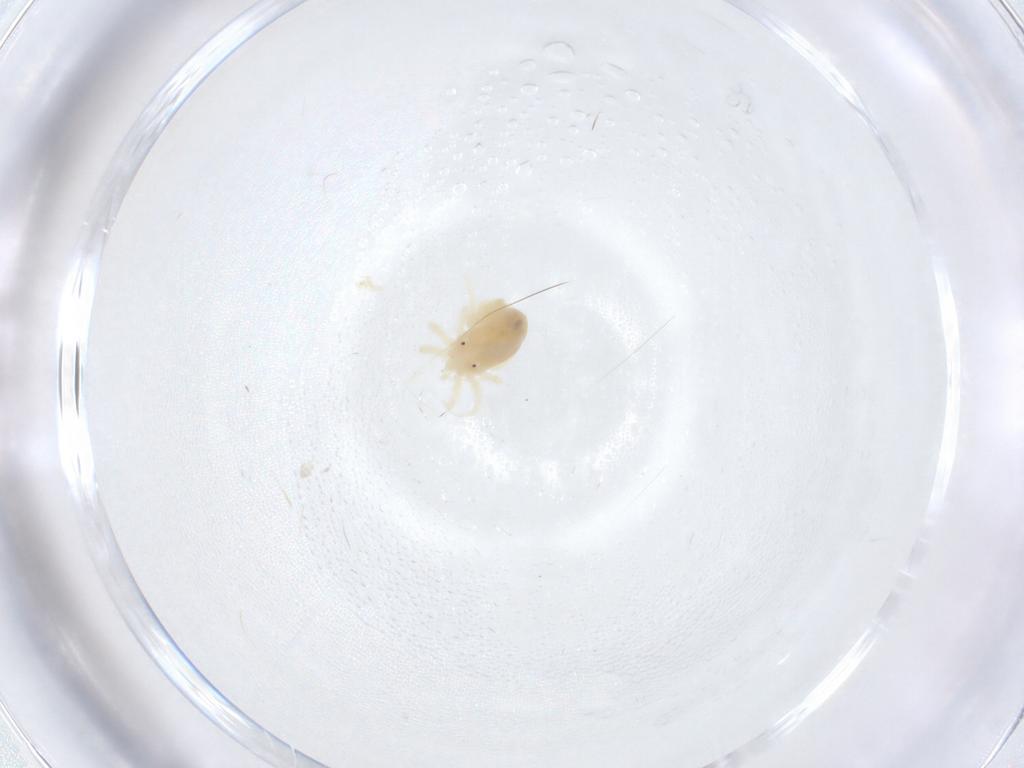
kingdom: Animalia
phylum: Arthropoda
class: Arachnida
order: Trombidiformes
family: Anystidae
